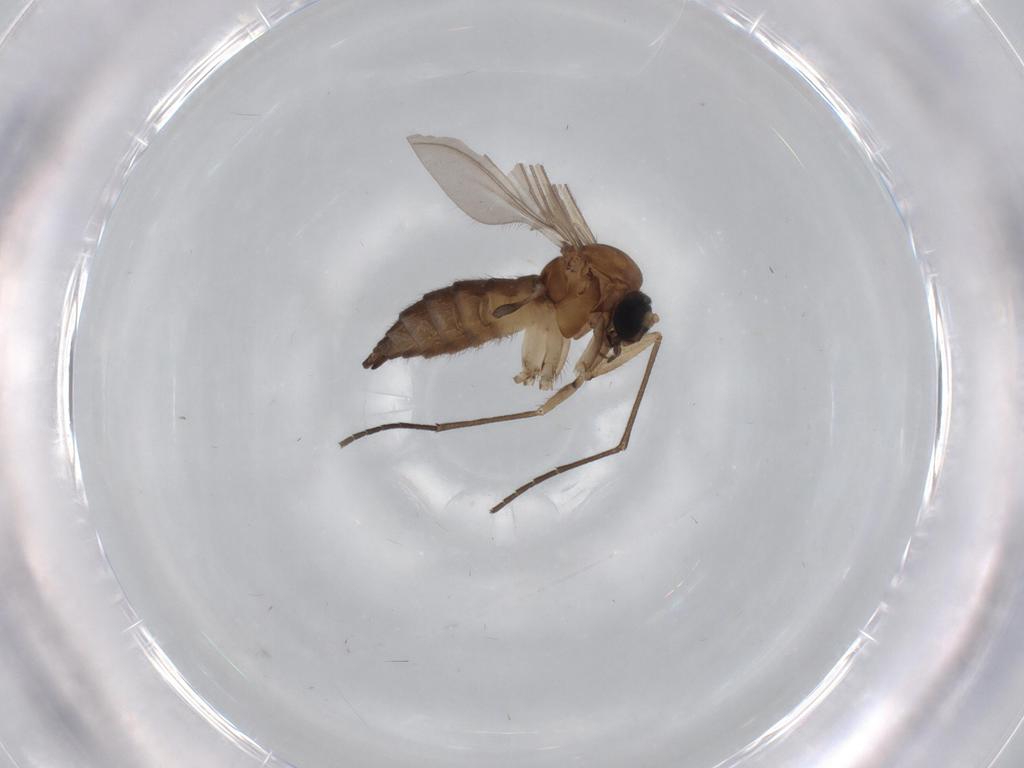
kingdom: Animalia
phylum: Arthropoda
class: Insecta
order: Diptera
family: Sciaridae
